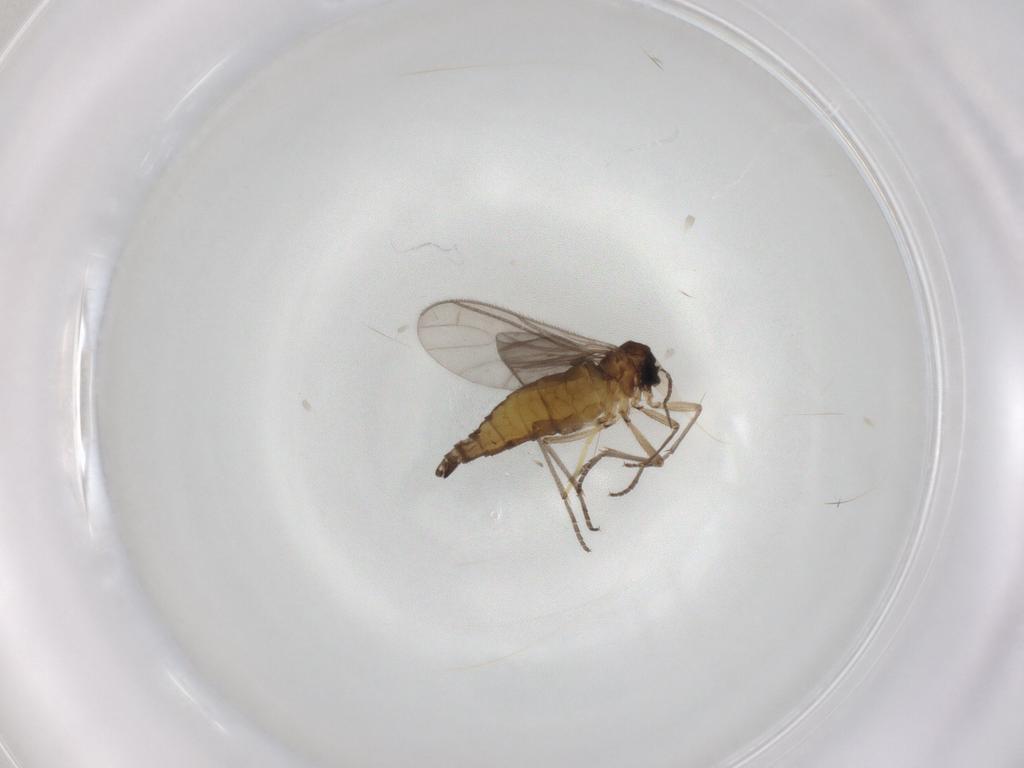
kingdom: Animalia
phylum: Arthropoda
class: Insecta
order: Diptera
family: Sciaridae
